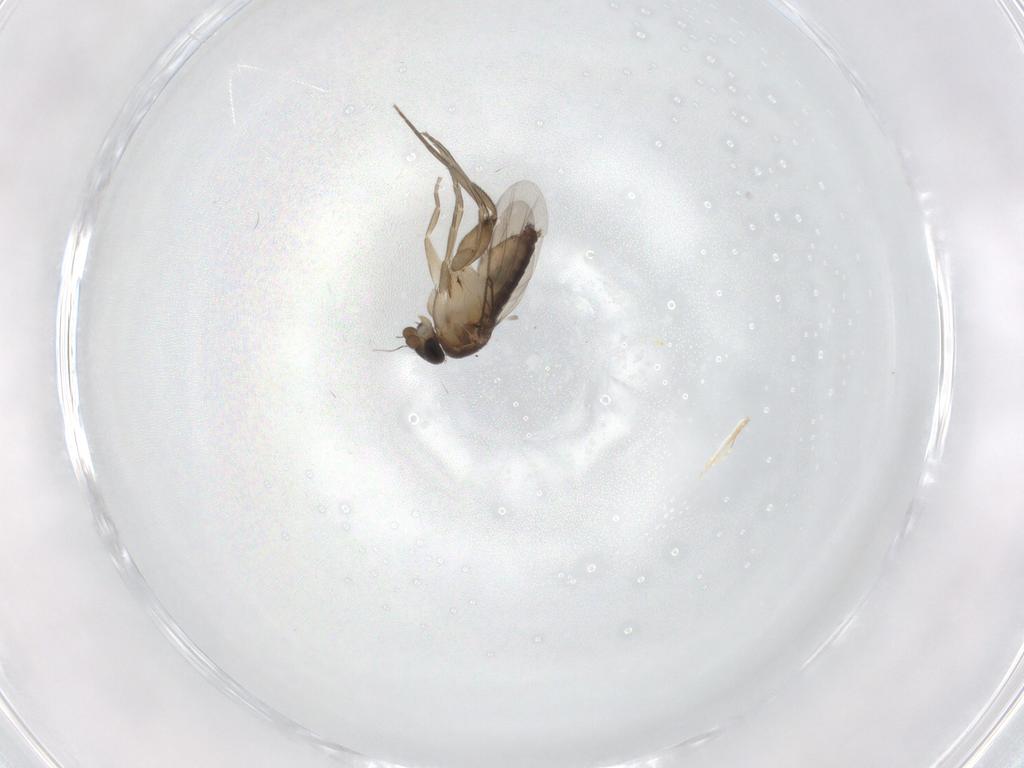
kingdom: Animalia
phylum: Arthropoda
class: Insecta
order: Diptera
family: Phoridae
